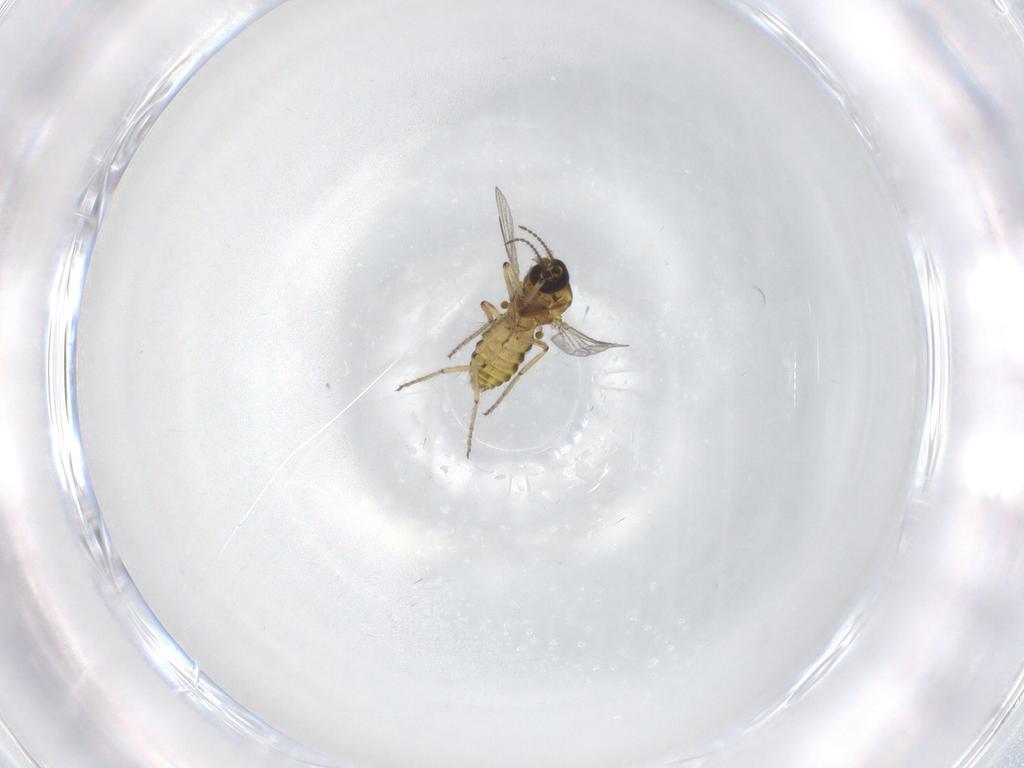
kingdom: Animalia
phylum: Arthropoda
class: Insecta
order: Diptera
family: Ceratopogonidae
